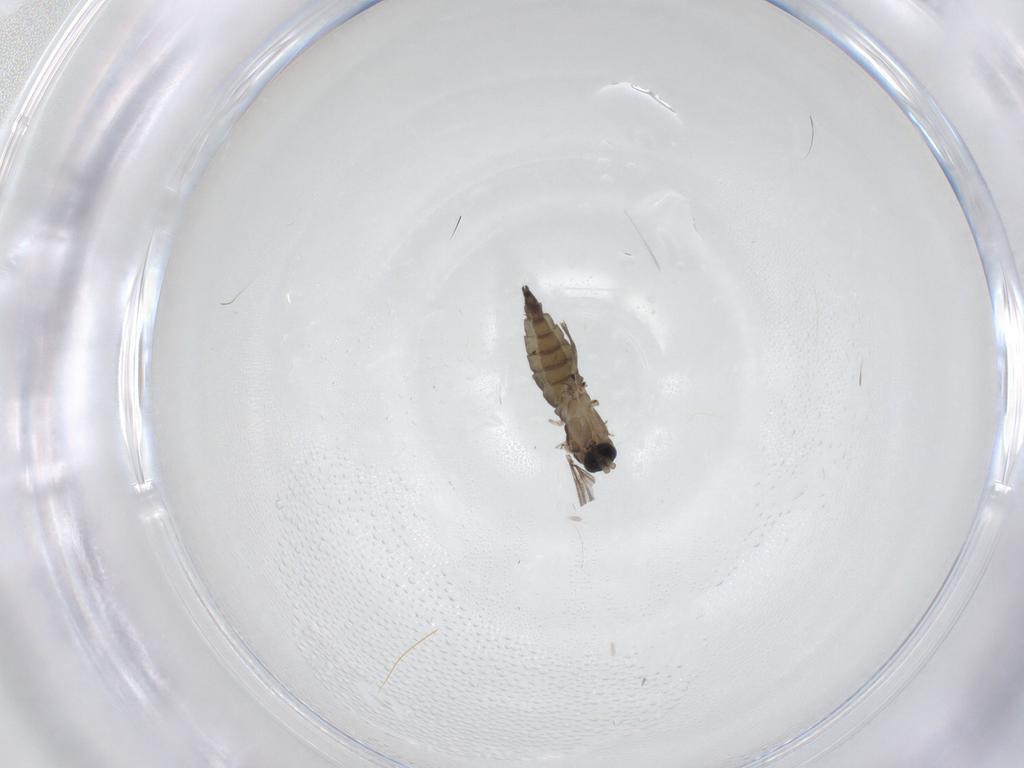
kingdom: Animalia
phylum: Arthropoda
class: Insecta
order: Diptera
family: Sciaridae
